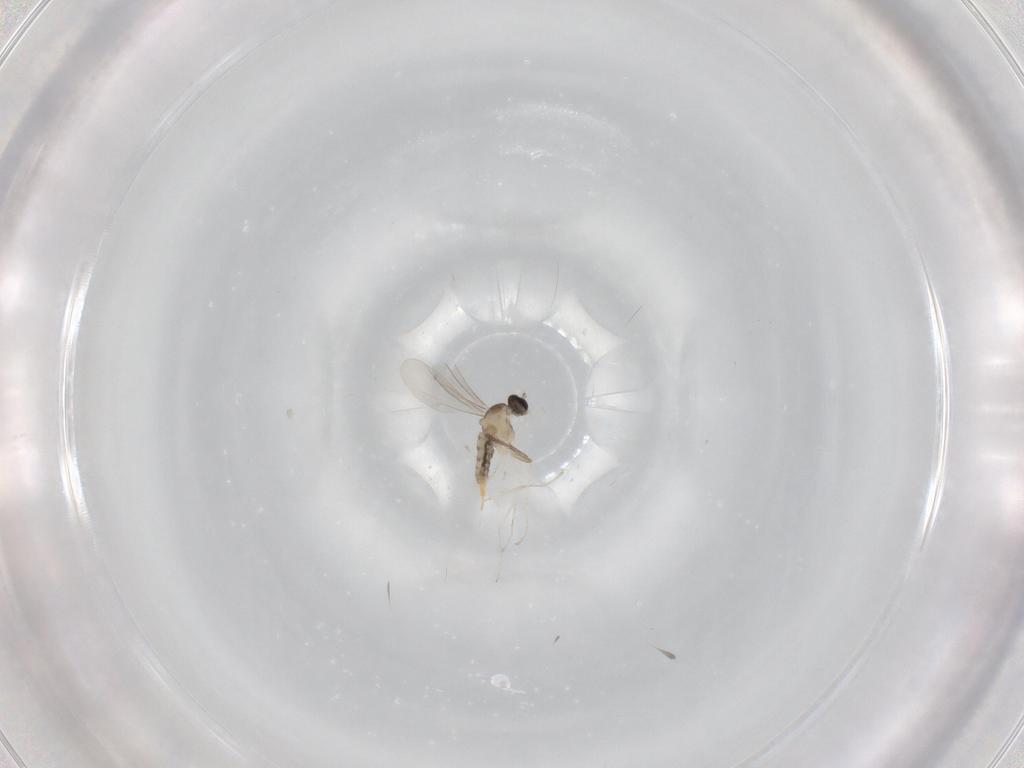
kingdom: Animalia
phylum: Arthropoda
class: Insecta
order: Diptera
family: Cecidomyiidae
